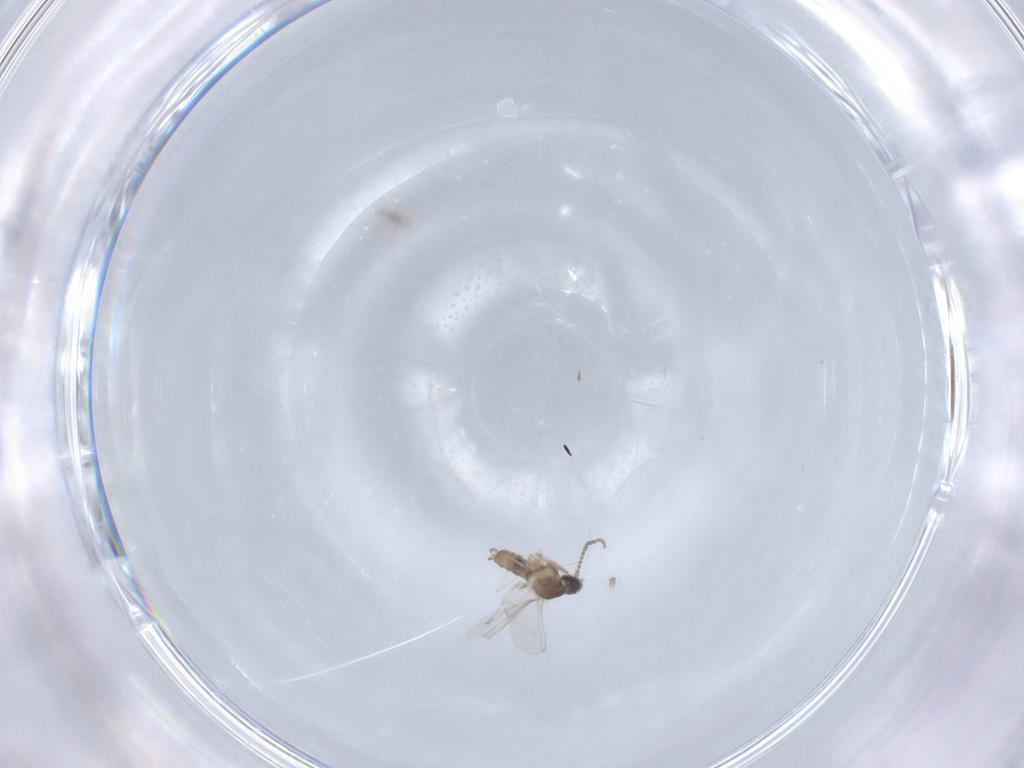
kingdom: Animalia
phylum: Arthropoda
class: Insecta
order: Diptera
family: Cecidomyiidae
